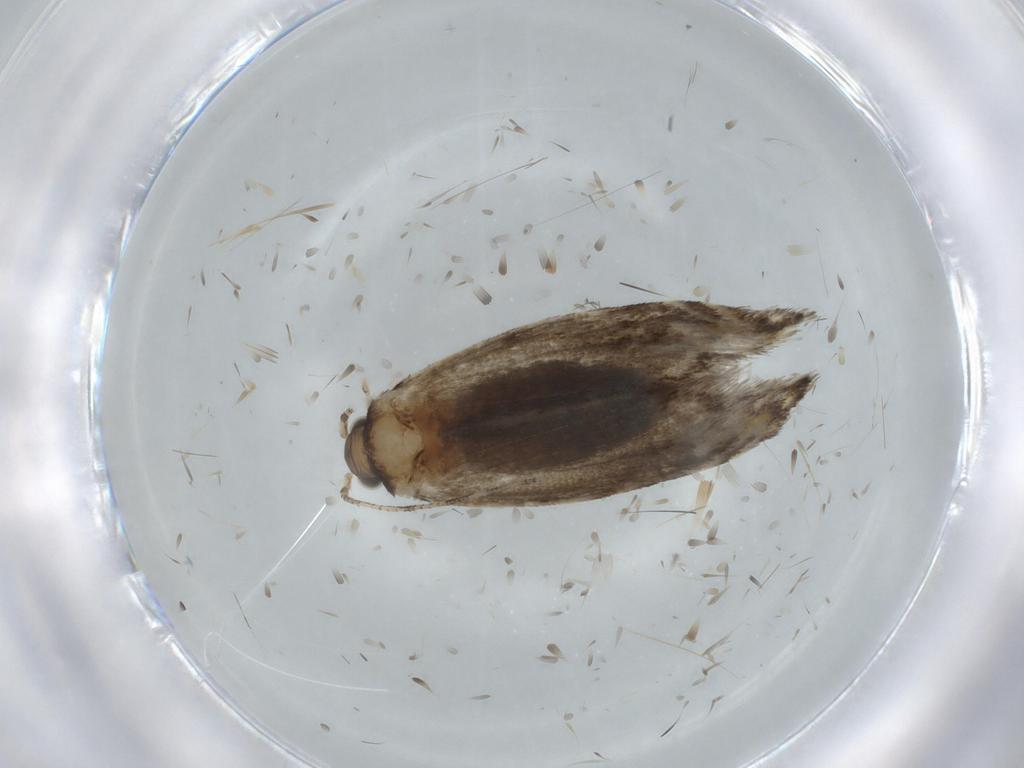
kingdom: Animalia
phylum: Arthropoda
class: Insecta
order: Lepidoptera
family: Tineidae
